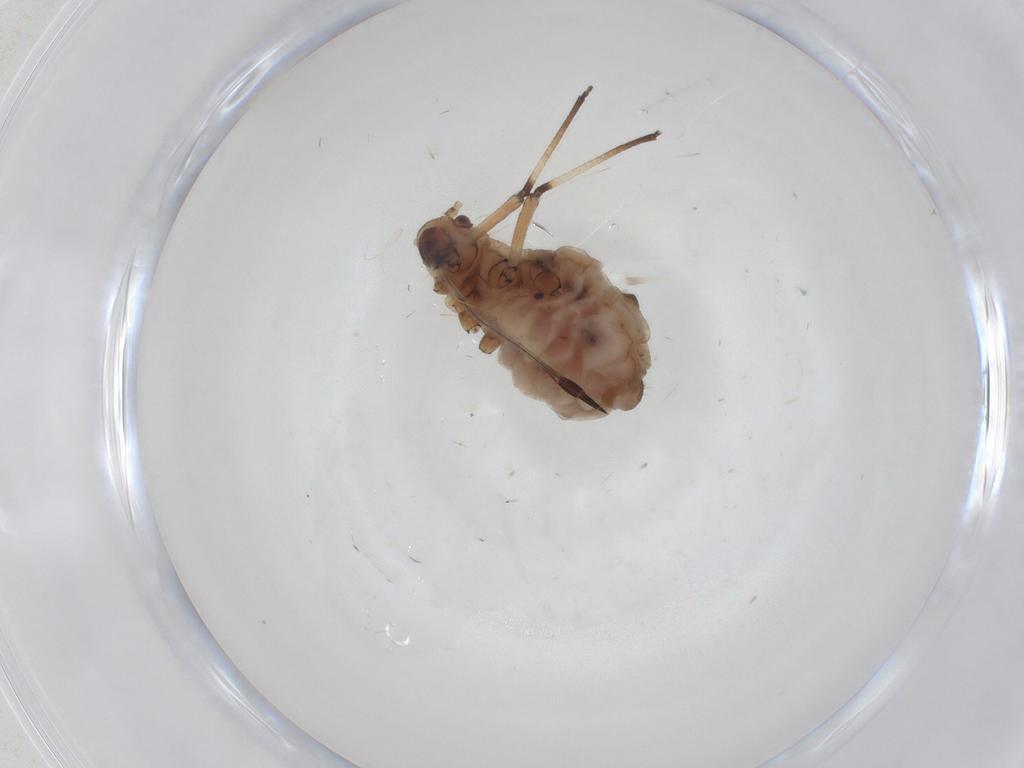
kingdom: Animalia
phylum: Arthropoda
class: Insecta
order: Hemiptera
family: Aphididae
